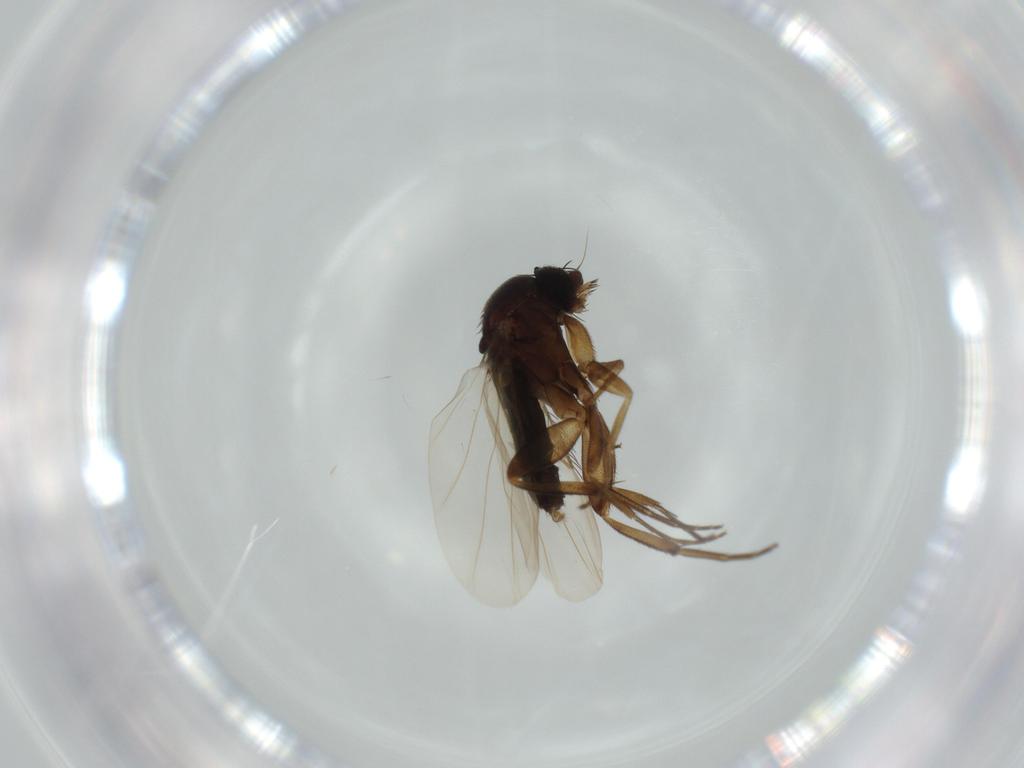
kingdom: Animalia
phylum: Arthropoda
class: Insecta
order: Diptera
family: Phoridae
